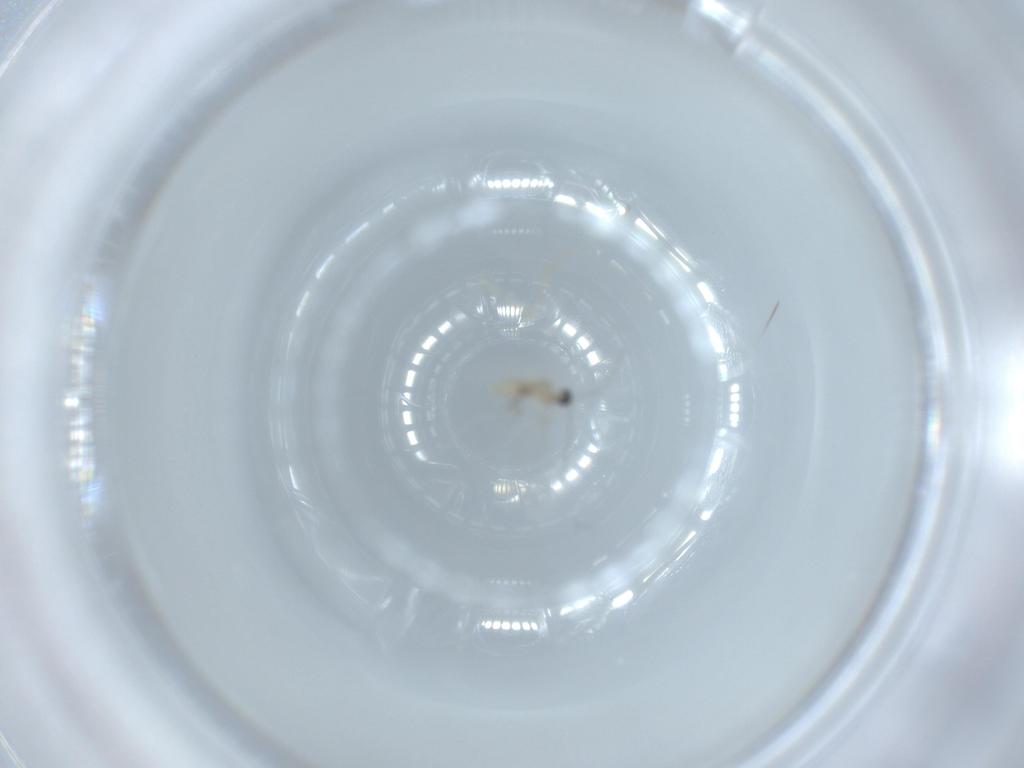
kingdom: Animalia
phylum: Arthropoda
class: Insecta
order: Diptera
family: Cecidomyiidae
